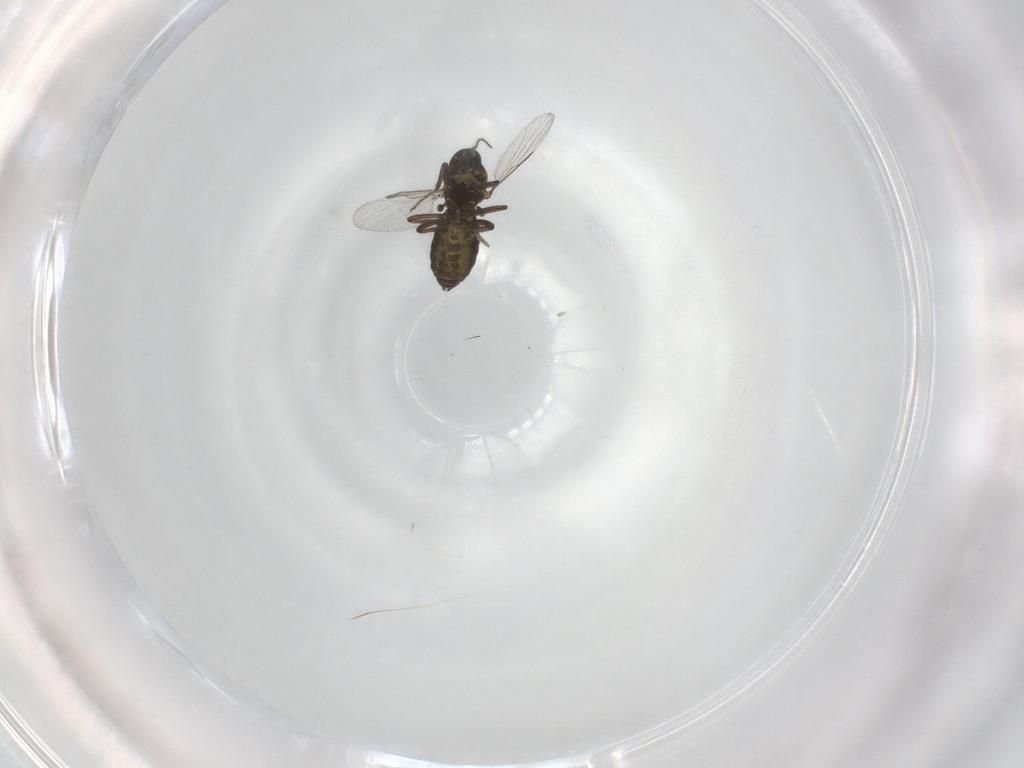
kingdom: Animalia
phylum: Arthropoda
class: Insecta
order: Diptera
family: Ceratopogonidae
